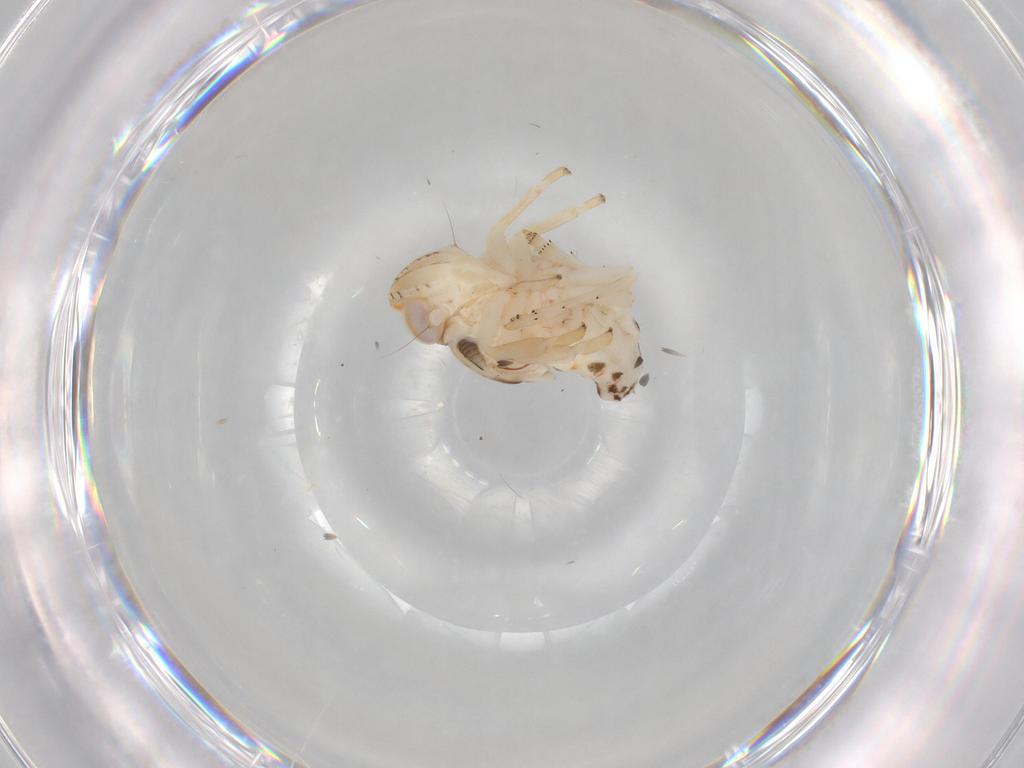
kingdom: Animalia
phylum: Arthropoda
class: Insecta
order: Hemiptera
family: Nogodinidae
